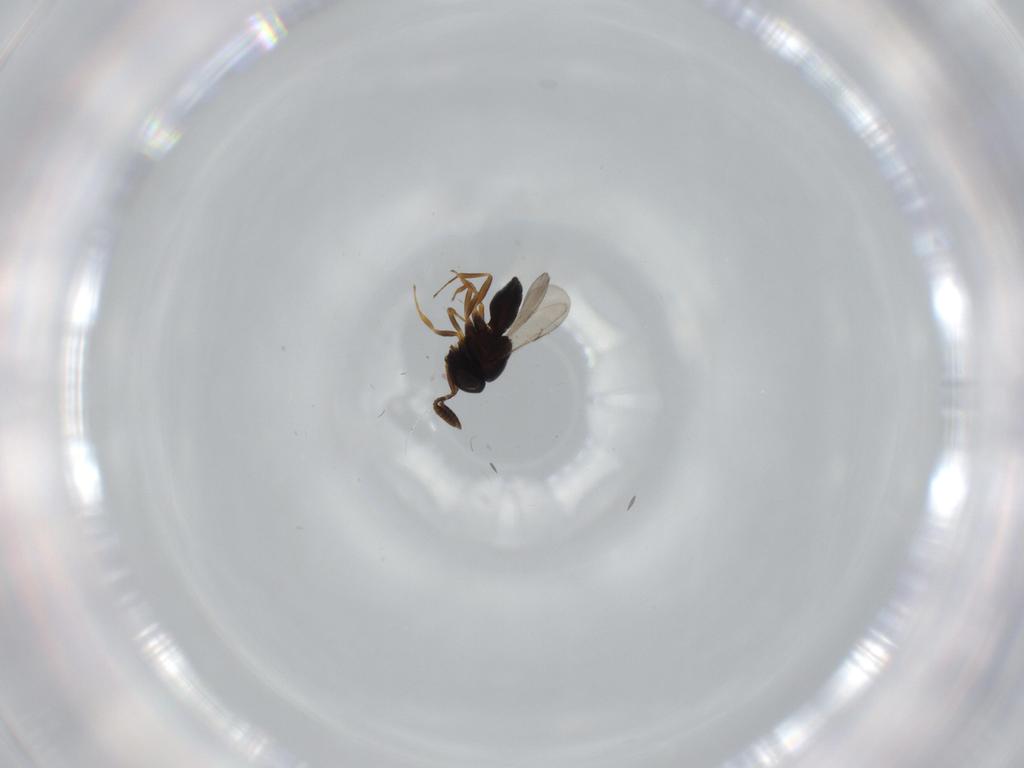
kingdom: Animalia
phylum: Arthropoda
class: Insecta
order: Hymenoptera
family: Scelionidae
